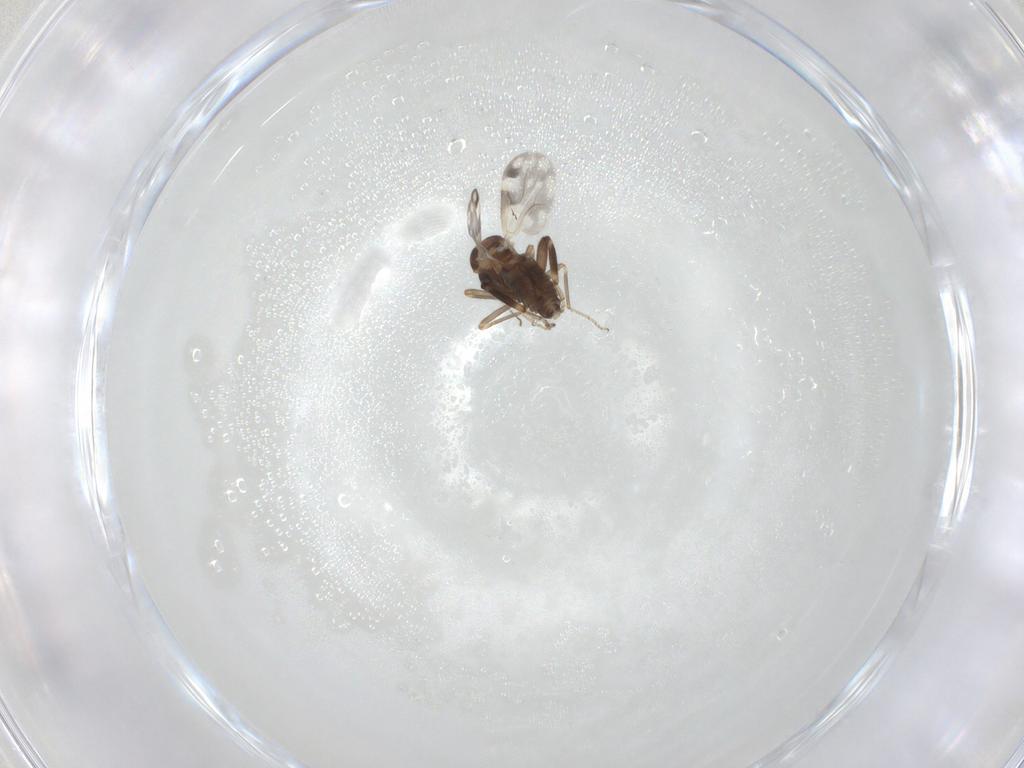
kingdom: Animalia
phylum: Arthropoda
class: Insecta
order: Diptera
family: Ceratopogonidae
